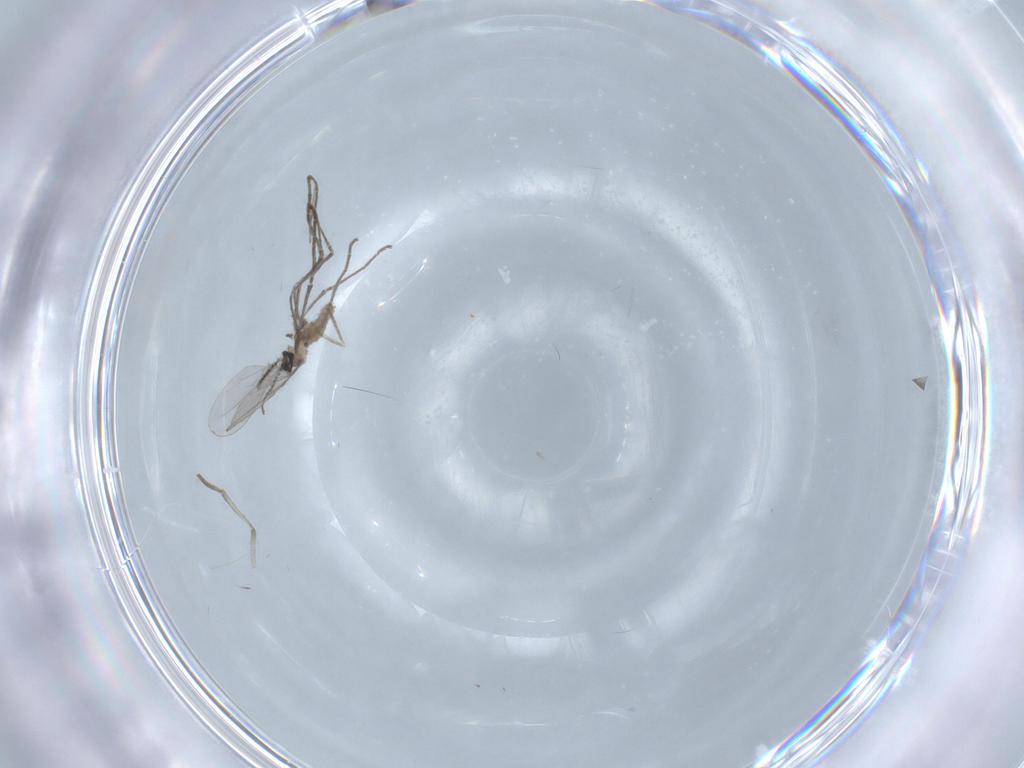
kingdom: Animalia
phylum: Arthropoda
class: Insecta
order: Diptera
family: Psychodidae
